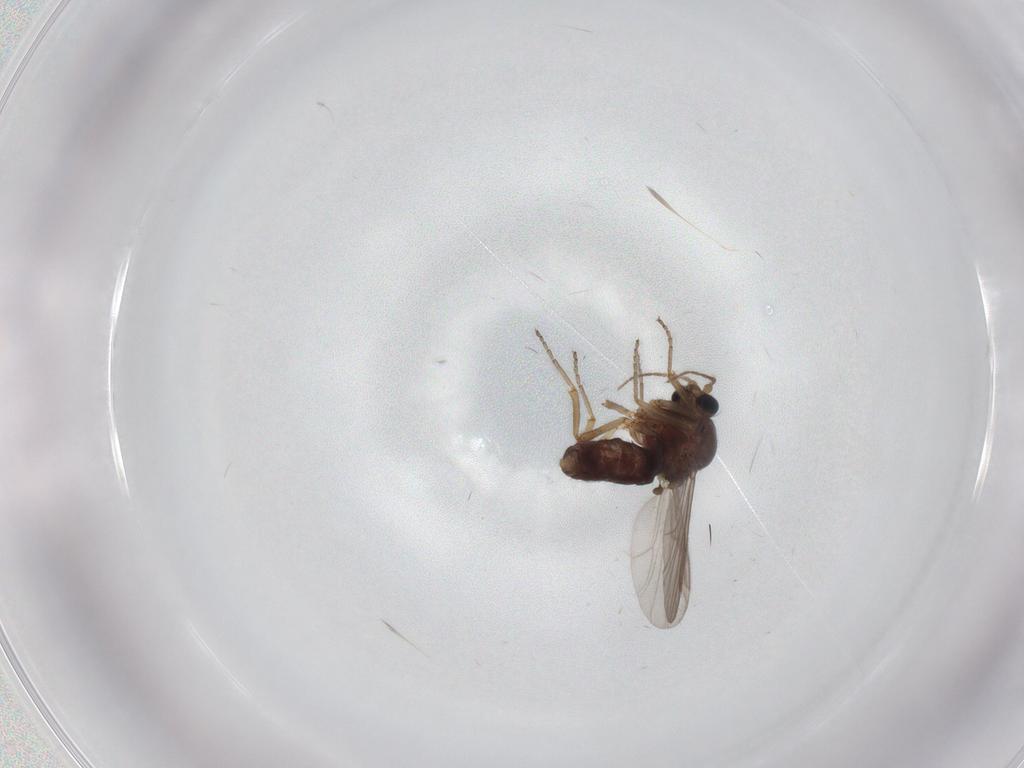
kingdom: Animalia
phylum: Arthropoda
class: Insecta
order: Diptera
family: Ceratopogonidae
